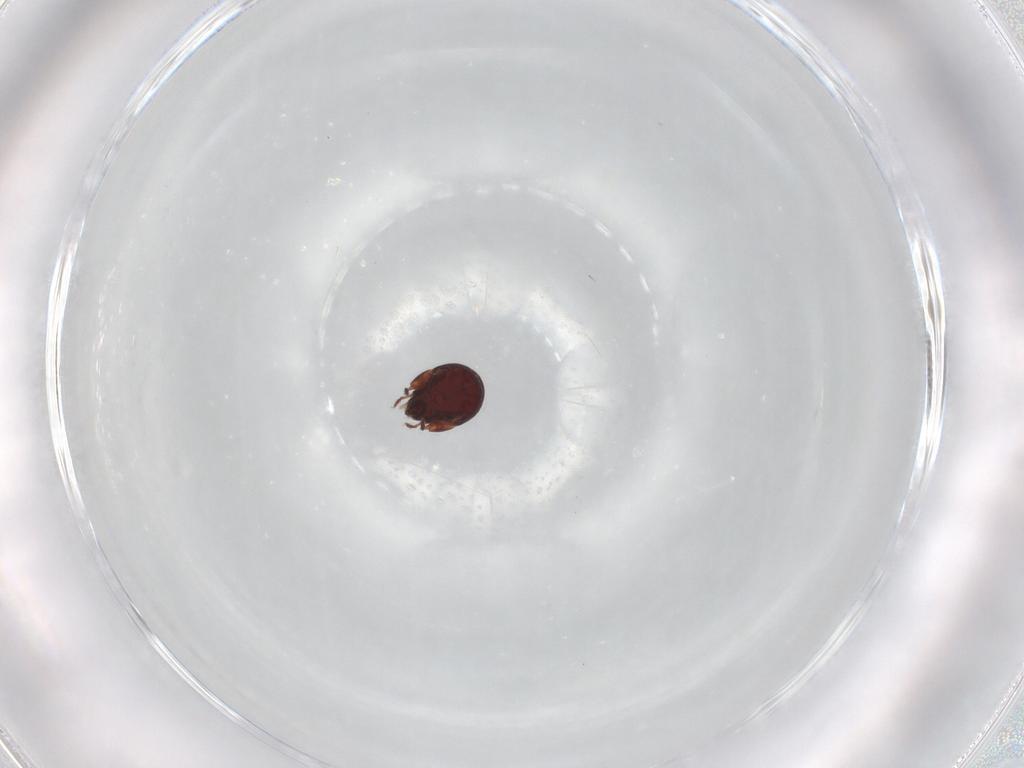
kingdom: Animalia
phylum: Arthropoda
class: Arachnida
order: Sarcoptiformes
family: Humerobatidae
